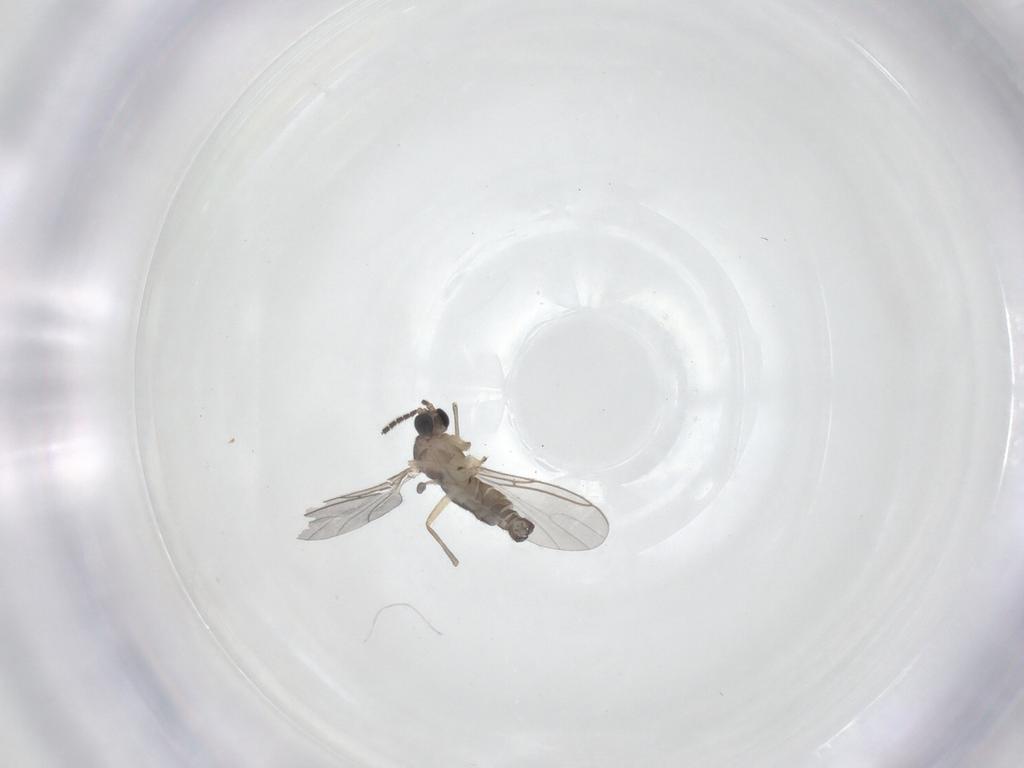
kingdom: Animalia
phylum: Arthropoda
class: Insecta
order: Diptera
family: Sciaridae
